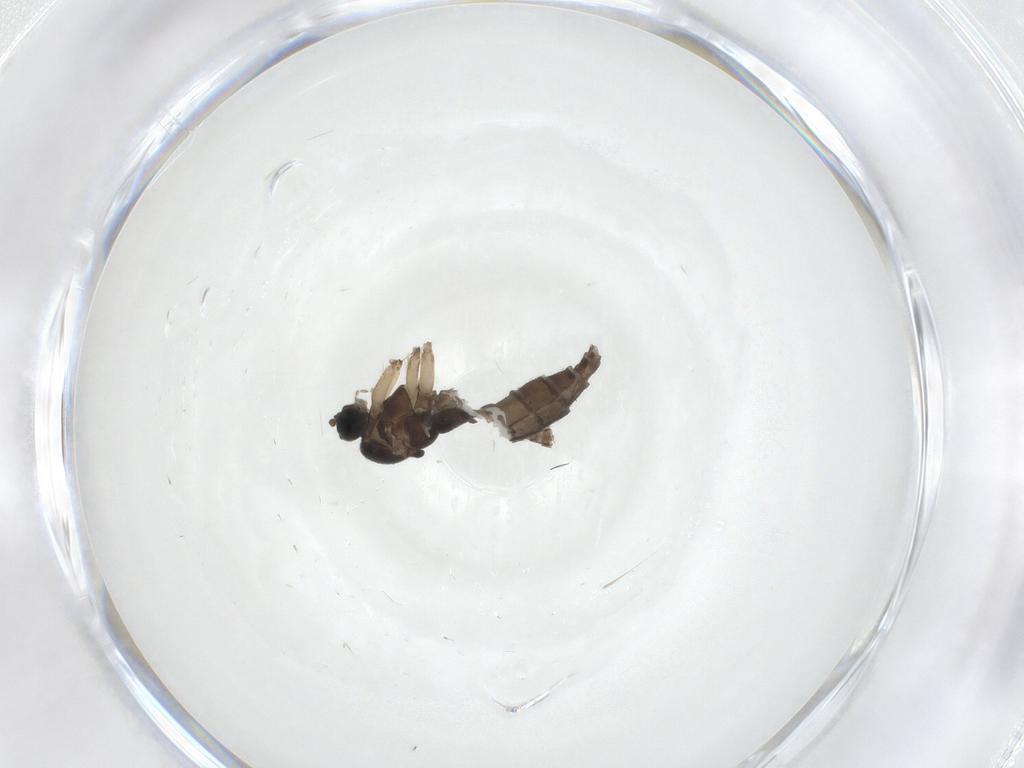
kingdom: Animalia
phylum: Arthropoda
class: Insecta
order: Diptera
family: Sciaridae
